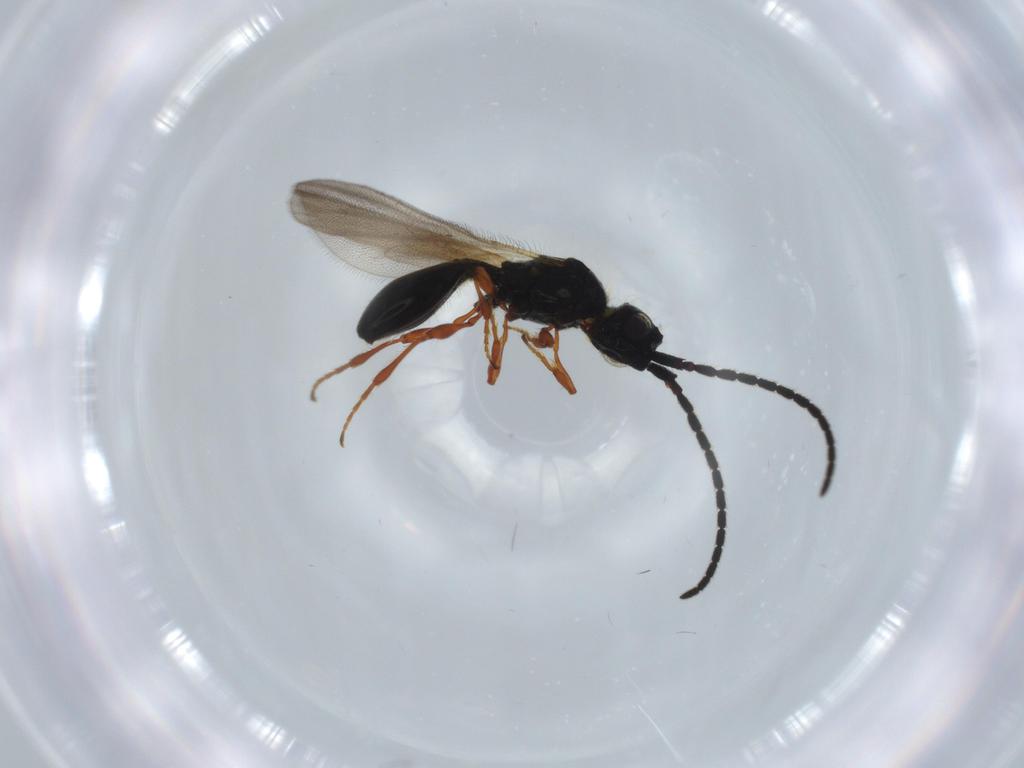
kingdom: Animalia
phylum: Arthropoda
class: Insecta
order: Hymenoptera
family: Diapriidae
